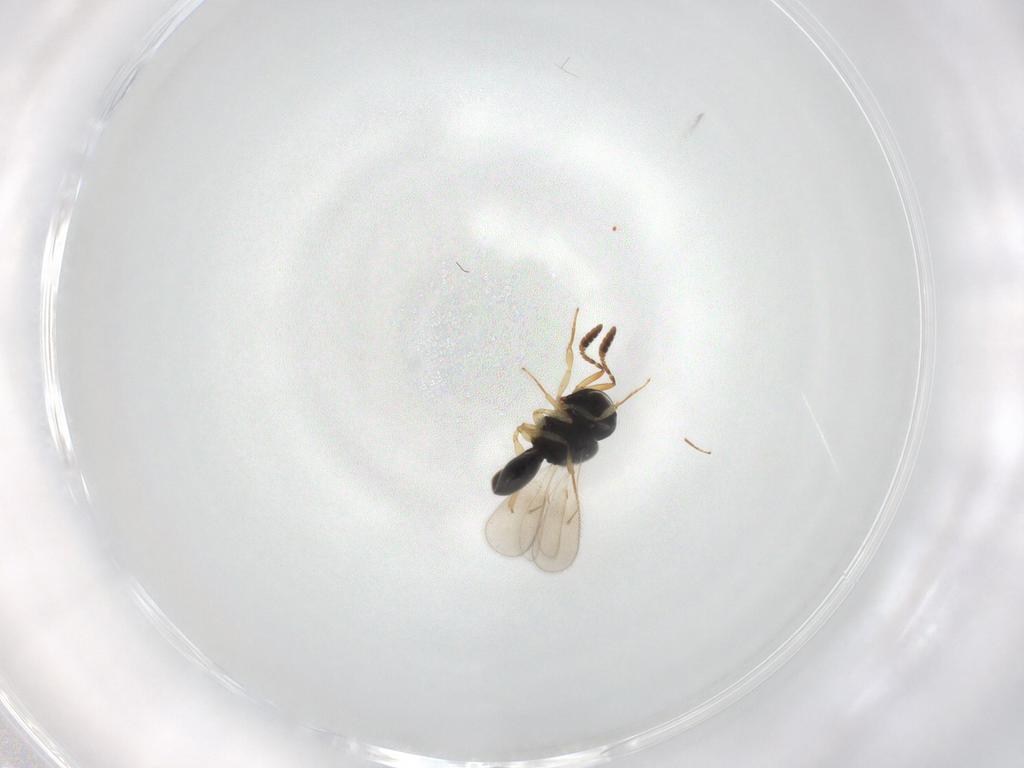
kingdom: Animalia
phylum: Arthropoda
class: Insecta
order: Hymenoptera
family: Scelionidae
